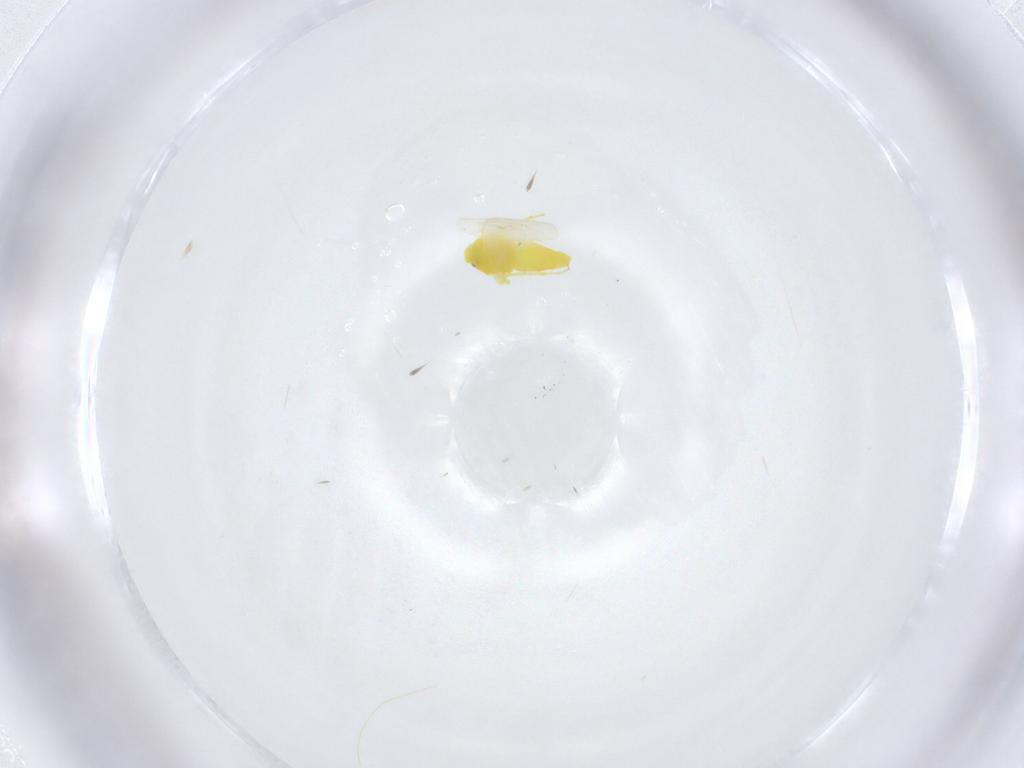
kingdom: Animalia
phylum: Arthropoda
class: Insecta
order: Hemiptera
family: Aleyrodidae
